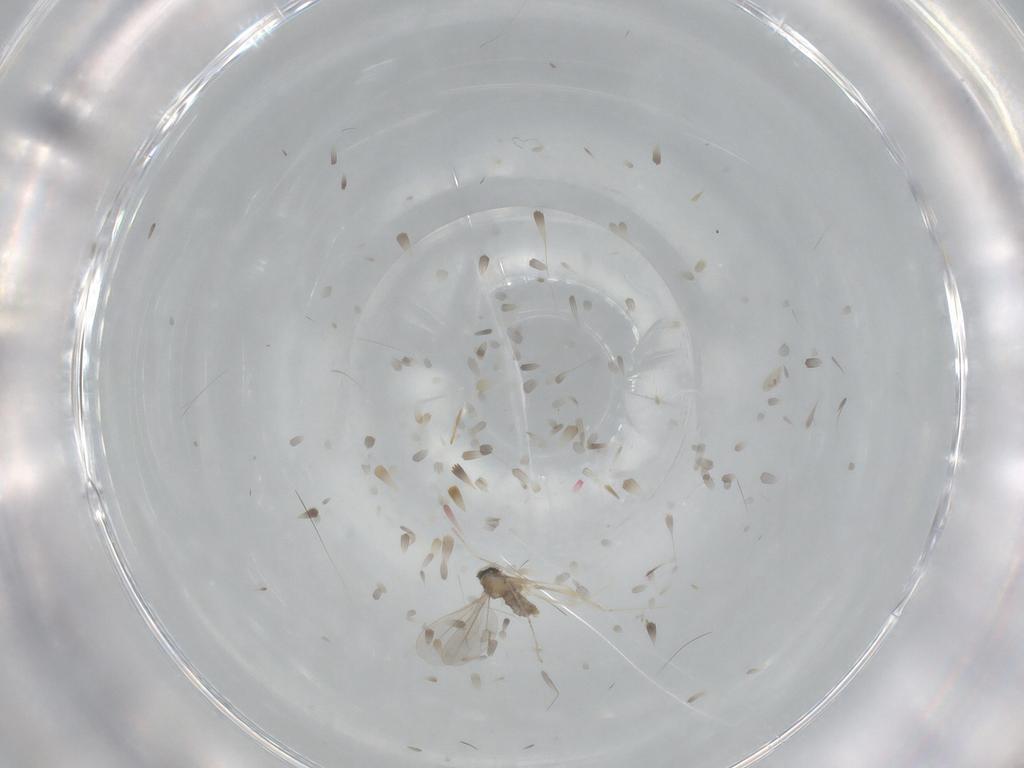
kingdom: Animalia
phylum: Arthropoda
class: Insecta
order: Diptera
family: Cecidomyiidae
